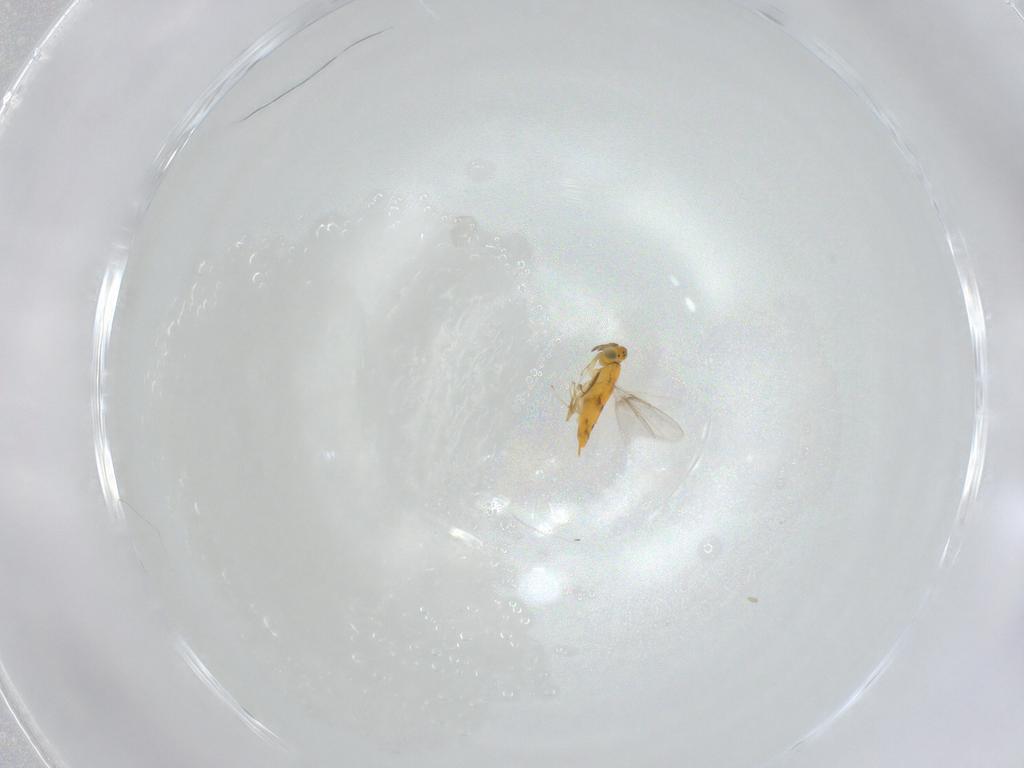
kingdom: Animalia
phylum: Arthropoda
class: Insecta
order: Hymenoptera
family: Aphelinidae
